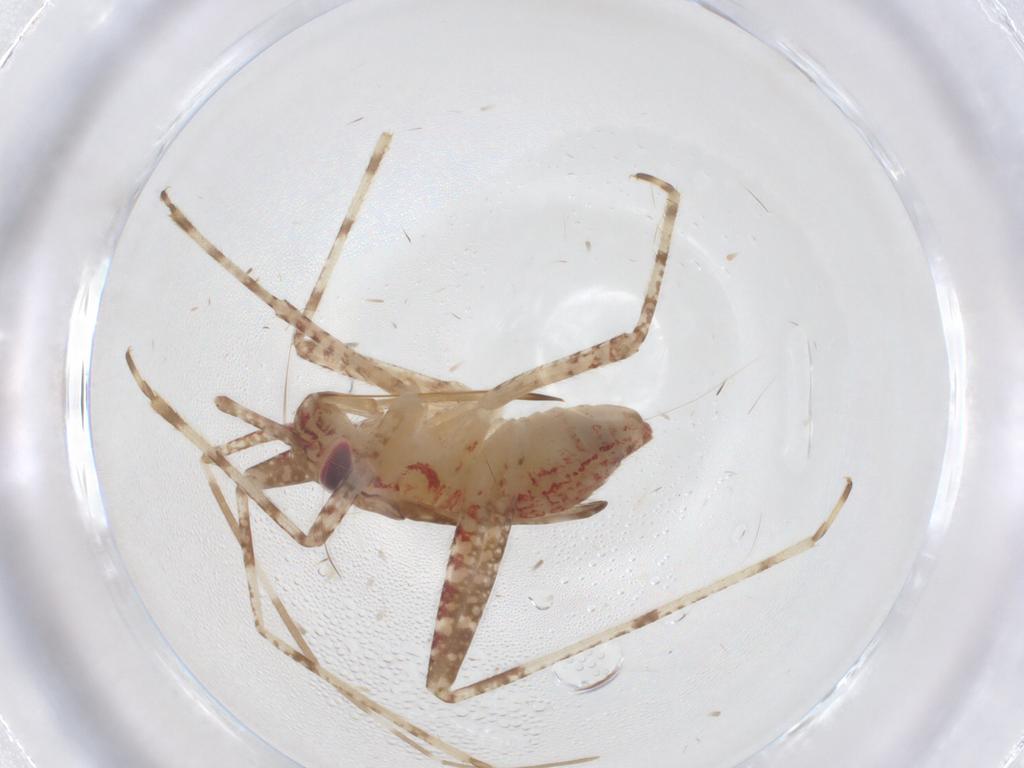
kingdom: Animalia
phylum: Arthropoda
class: Insecta
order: Hemiptera
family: Miridae
